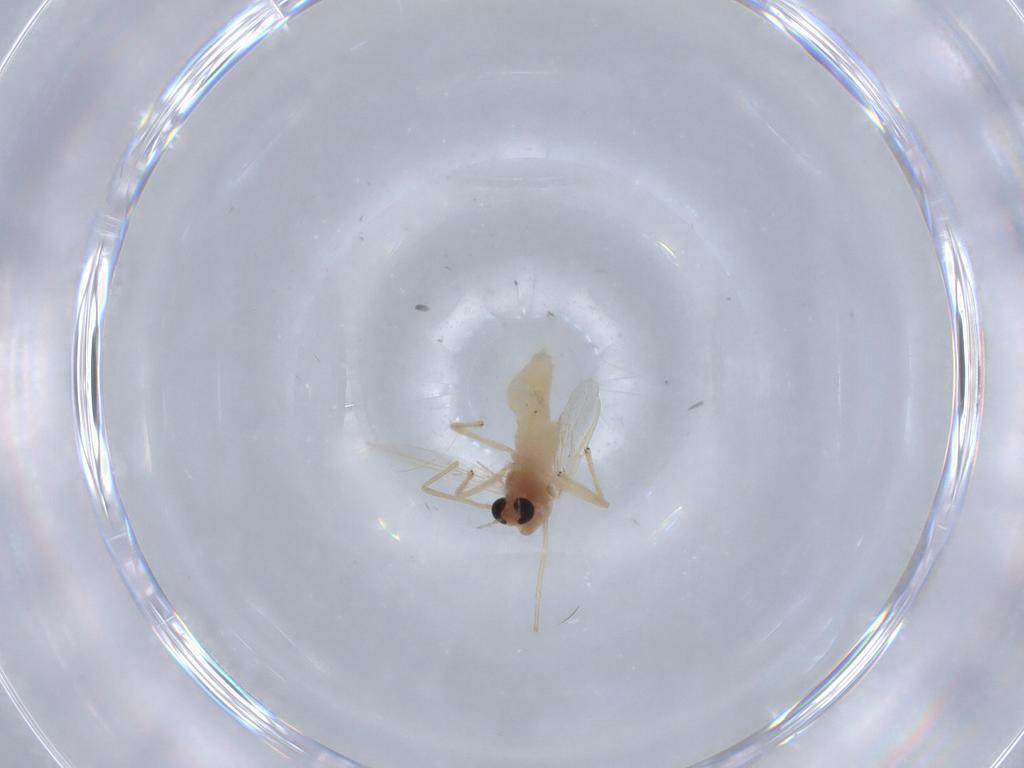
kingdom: Animalia
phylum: Arthropoda
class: Insecta
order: Diptera
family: Chironomidae
